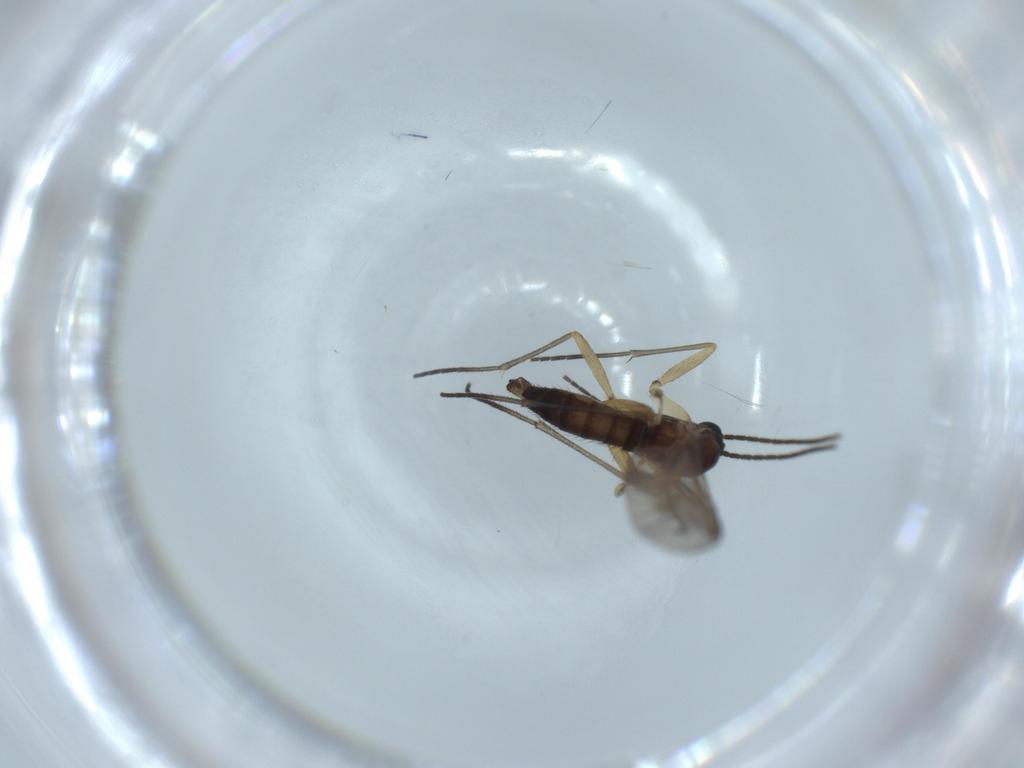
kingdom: Animalia
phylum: Arthropoda
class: Insecta
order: Diptera
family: Sciaridae
